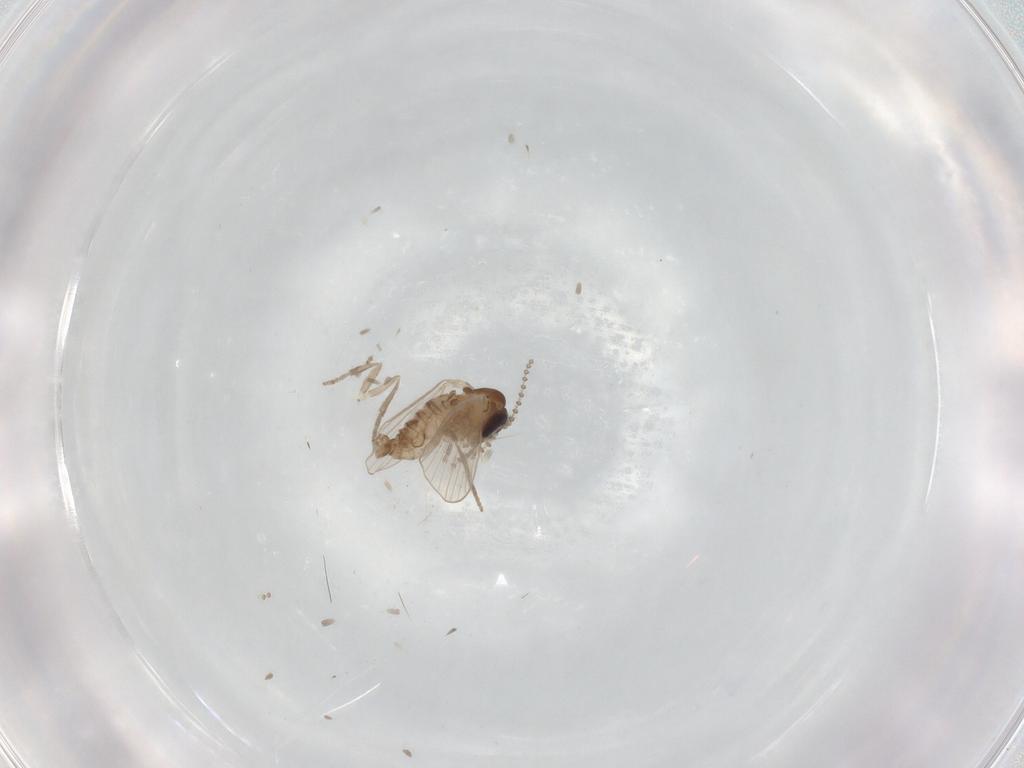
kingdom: Animalia
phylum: Arthropoda
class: Insecta
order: Diptera
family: Psychodidae
